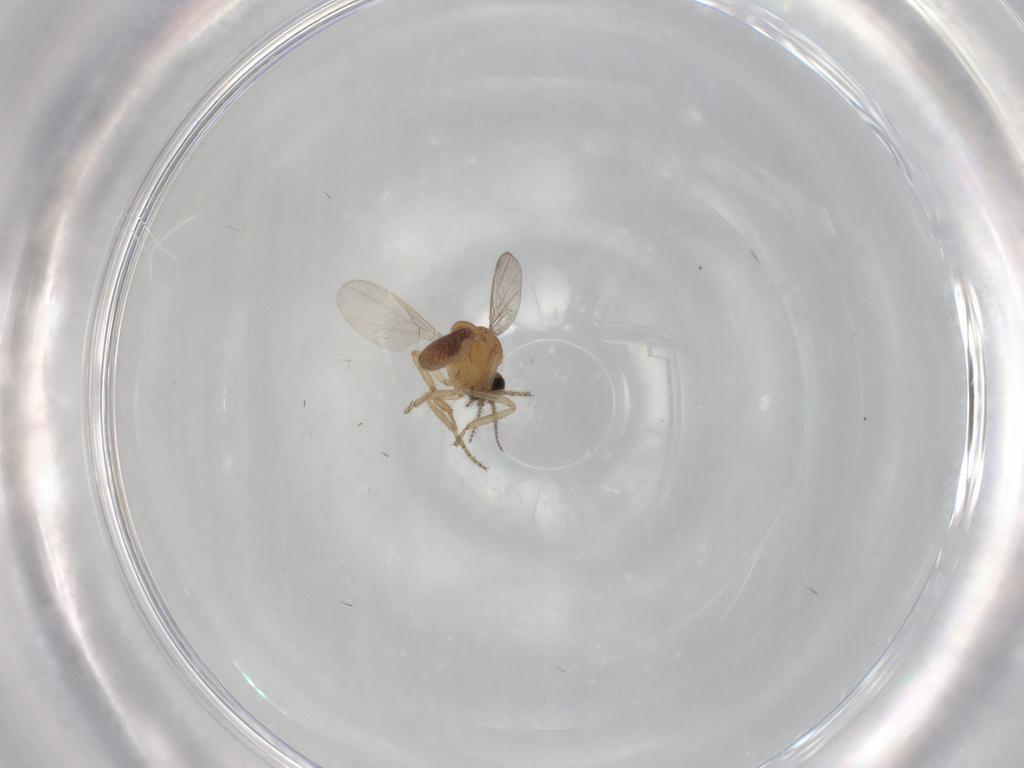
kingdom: Animalia
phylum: Arthropoda
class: Insecta
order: Diptera
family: Ceratopogonidae
